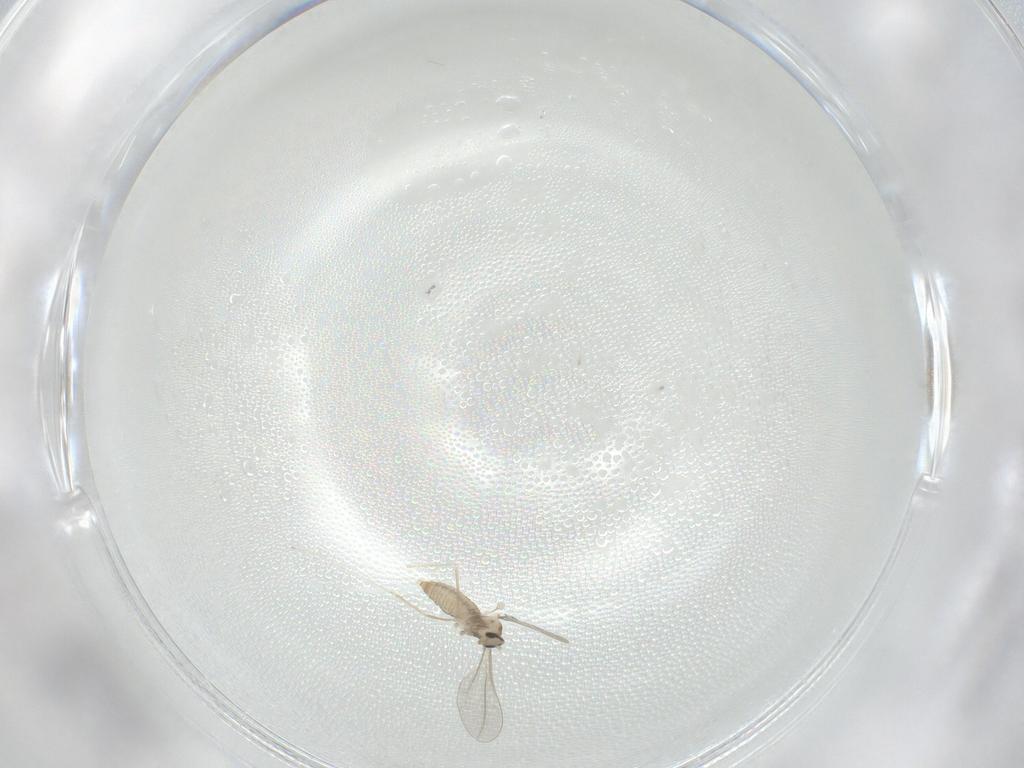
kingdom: Animalia
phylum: Arthropoda
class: Insecta
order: Diptera
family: Cecidomyiidae
